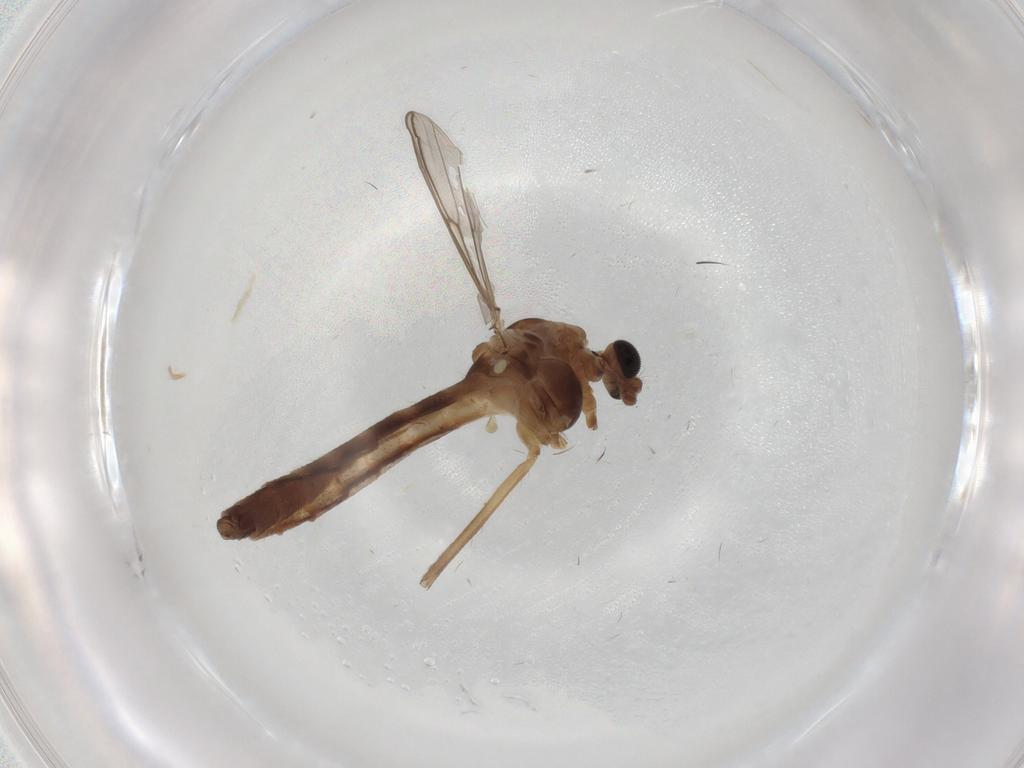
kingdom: Animalia
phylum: Arthropoda
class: Insecta
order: Diptera
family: Chironomidae
